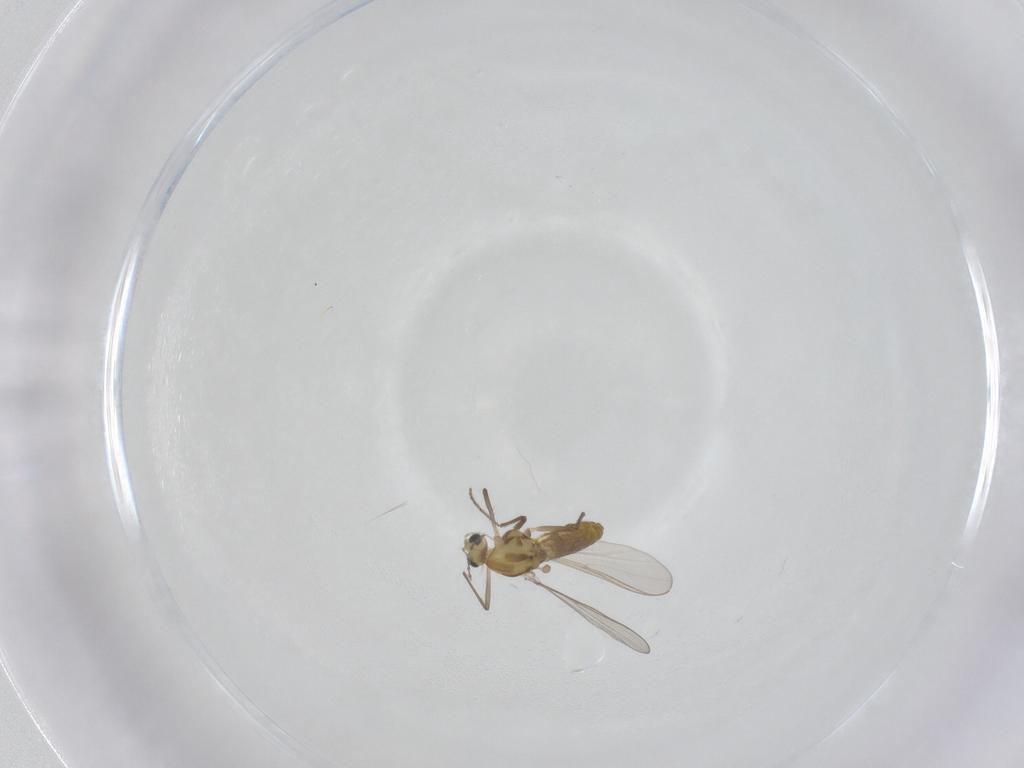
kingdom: Animalia
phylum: Arthropoda
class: Insecta
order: Diptera
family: Chironomidae
